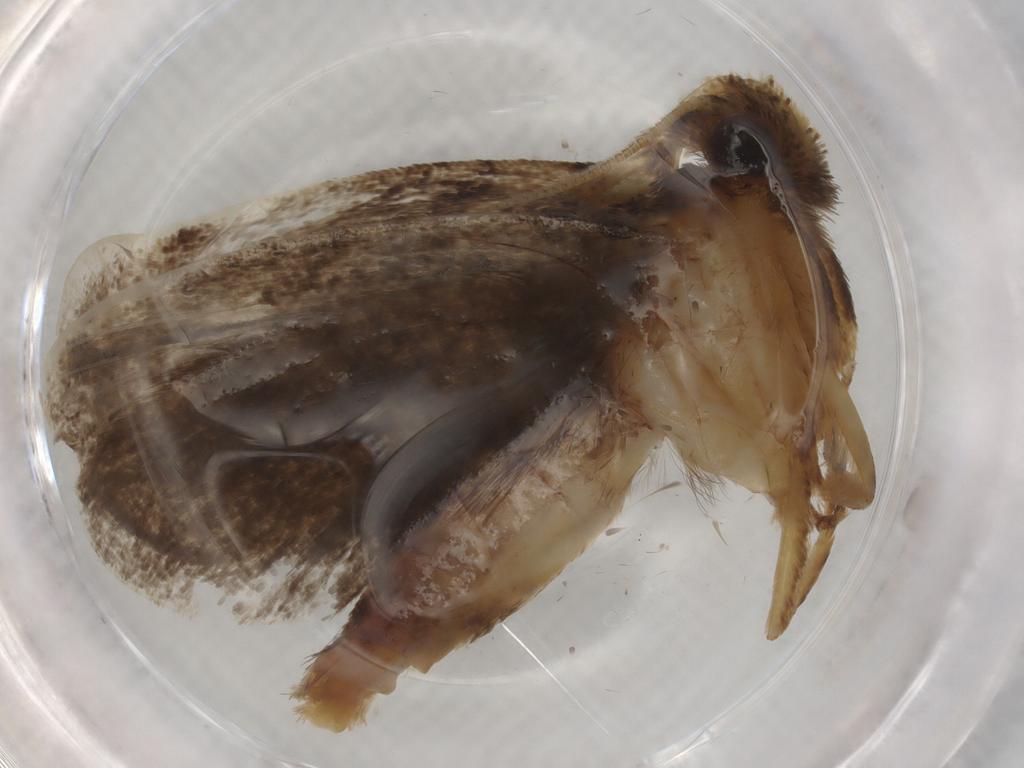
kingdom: Animalia
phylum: Arthropoda
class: Insecta
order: Lepidoptera
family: Tineidae
